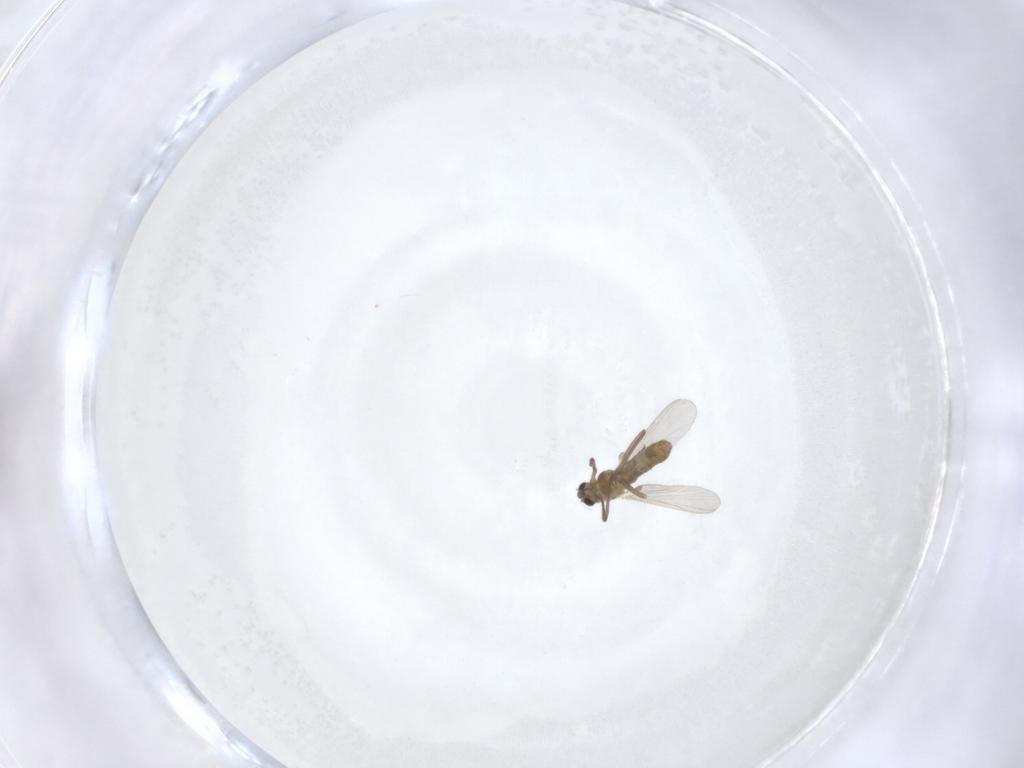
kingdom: Animalia
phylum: Arthropoda
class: Insecta
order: Diptera
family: Chironomidae
